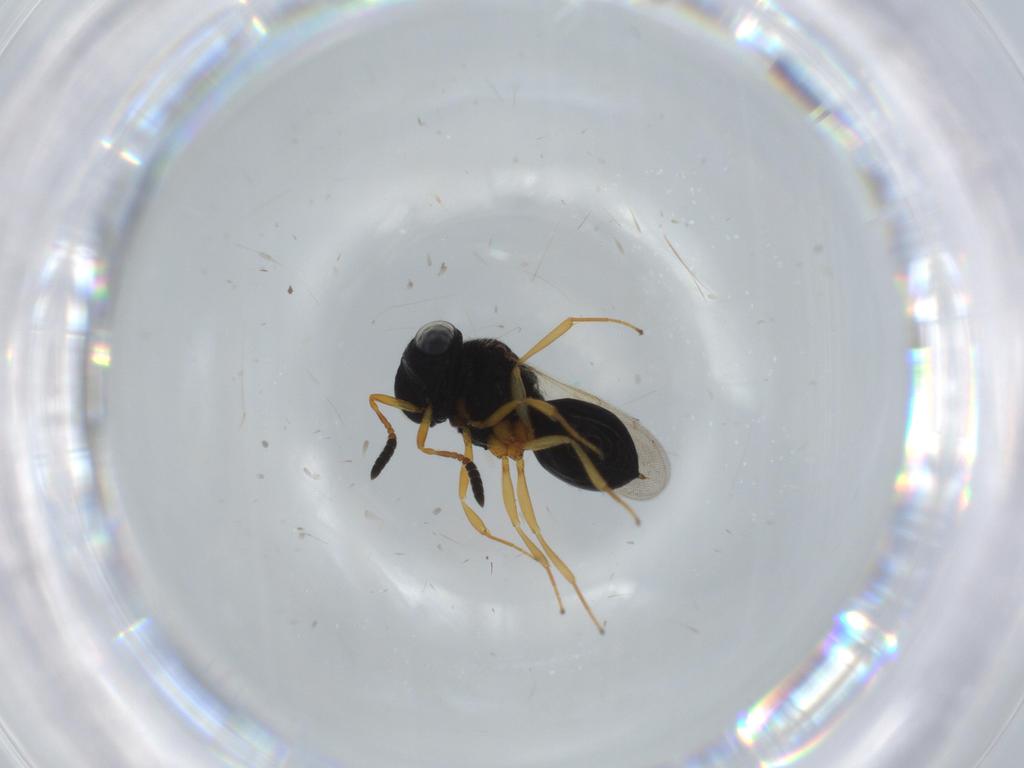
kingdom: Animalia
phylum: Arthropoda
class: Insecta
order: Hymenoptera
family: Scelionidae
